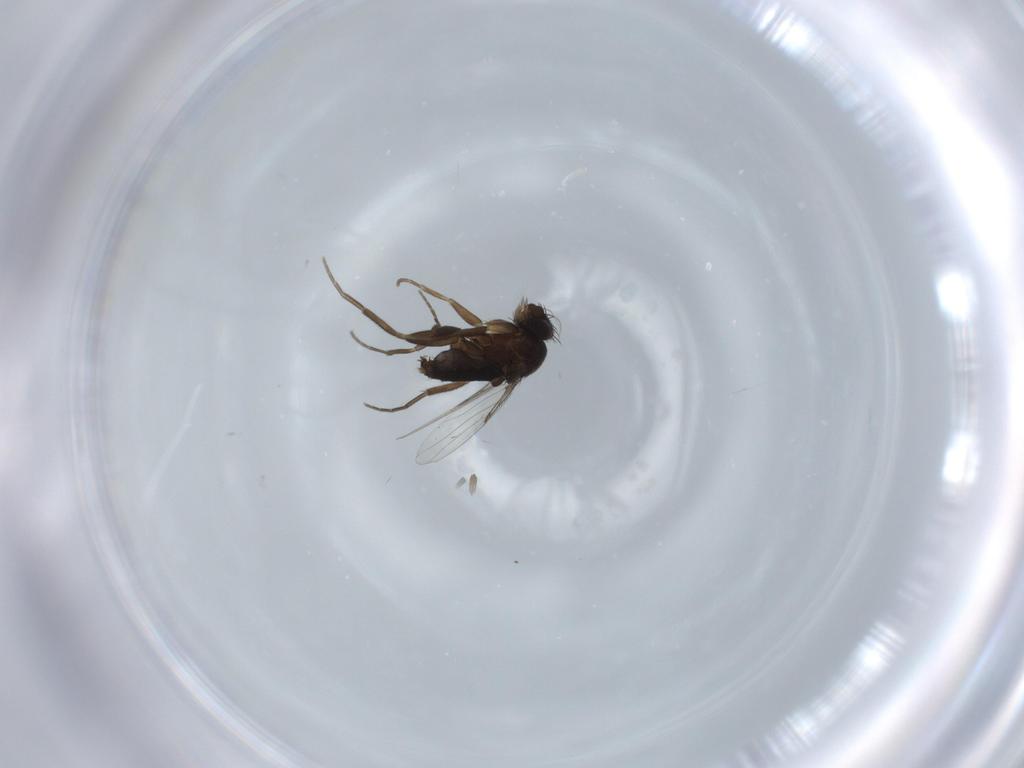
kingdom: Animalia
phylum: Arthropoda
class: Insecta
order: Diptera
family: Phoridae
